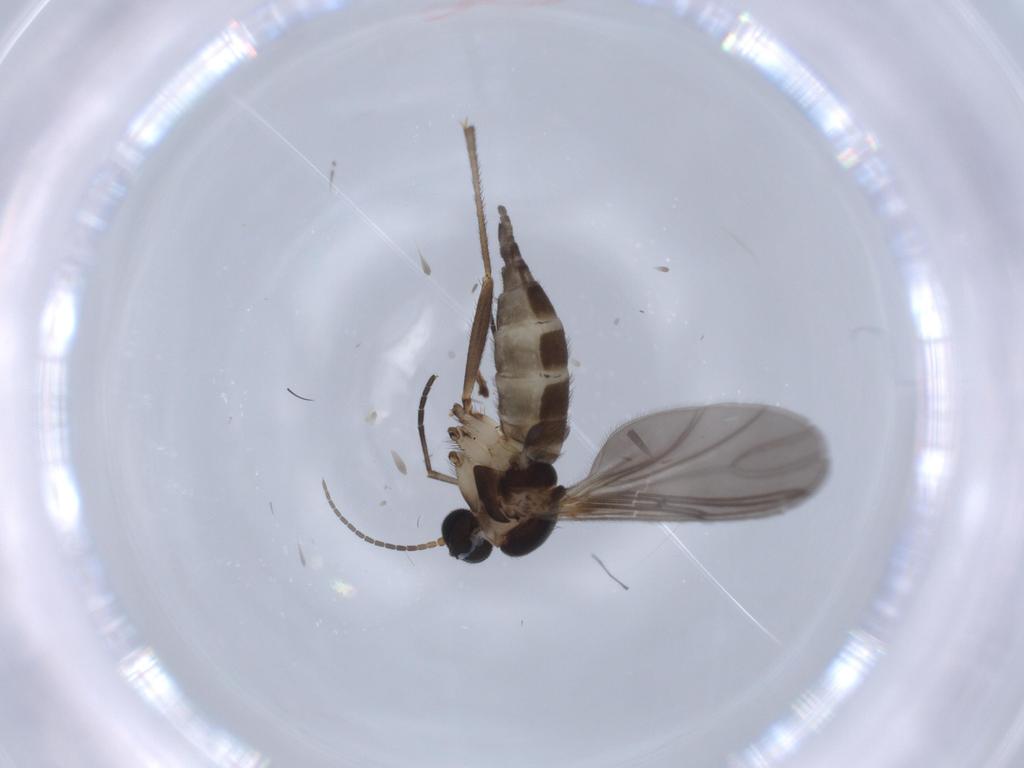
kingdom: Animalia
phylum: Arthropoda
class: Insecta
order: Diptera
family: Sciaridae
